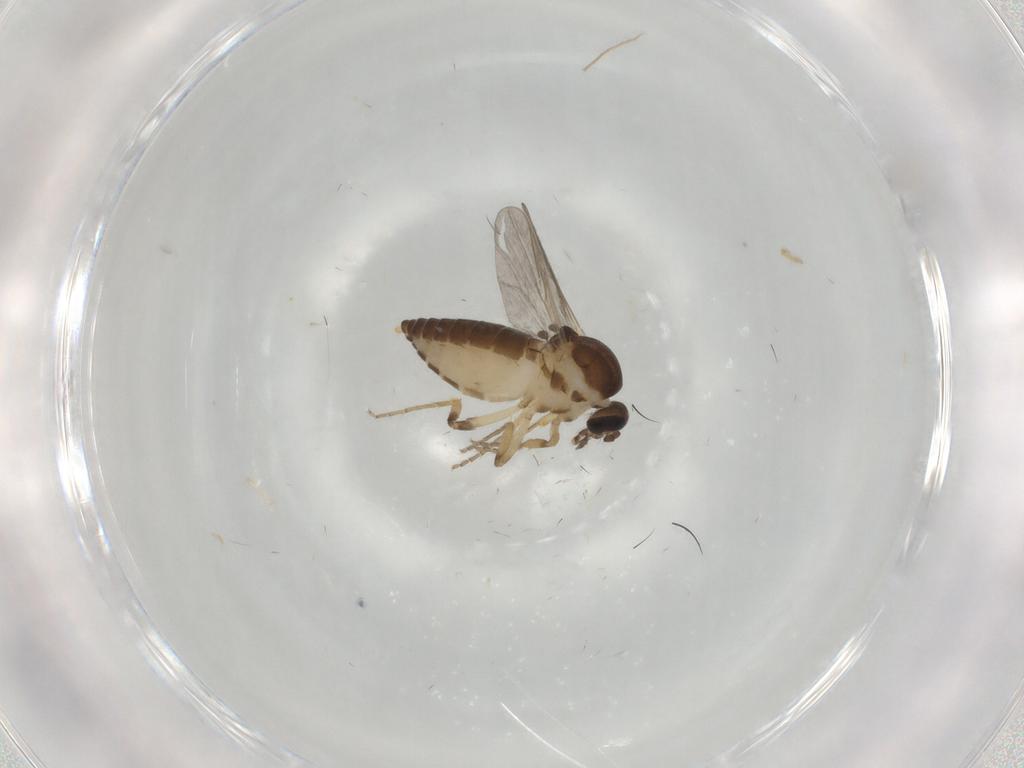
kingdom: Animalia
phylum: Arthropoda
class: Insecta
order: Diptera
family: Ceratopogonidae
